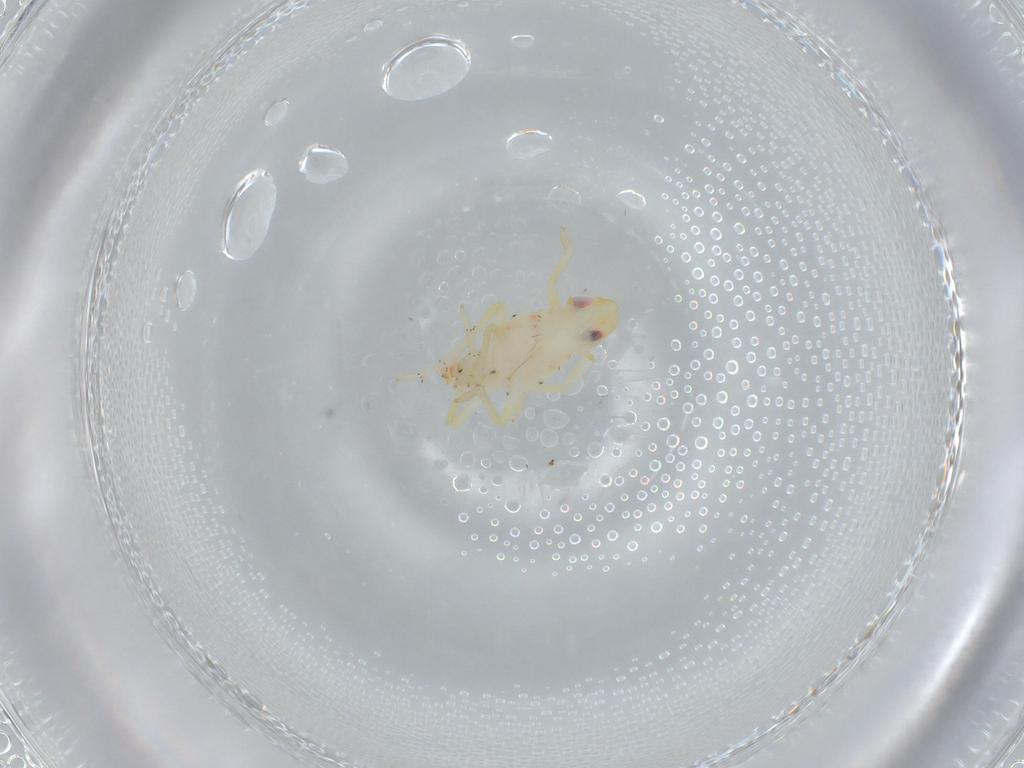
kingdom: Animalia
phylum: Arthropoda
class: Insecta
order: Hemiptera
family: Tropiduchidae
